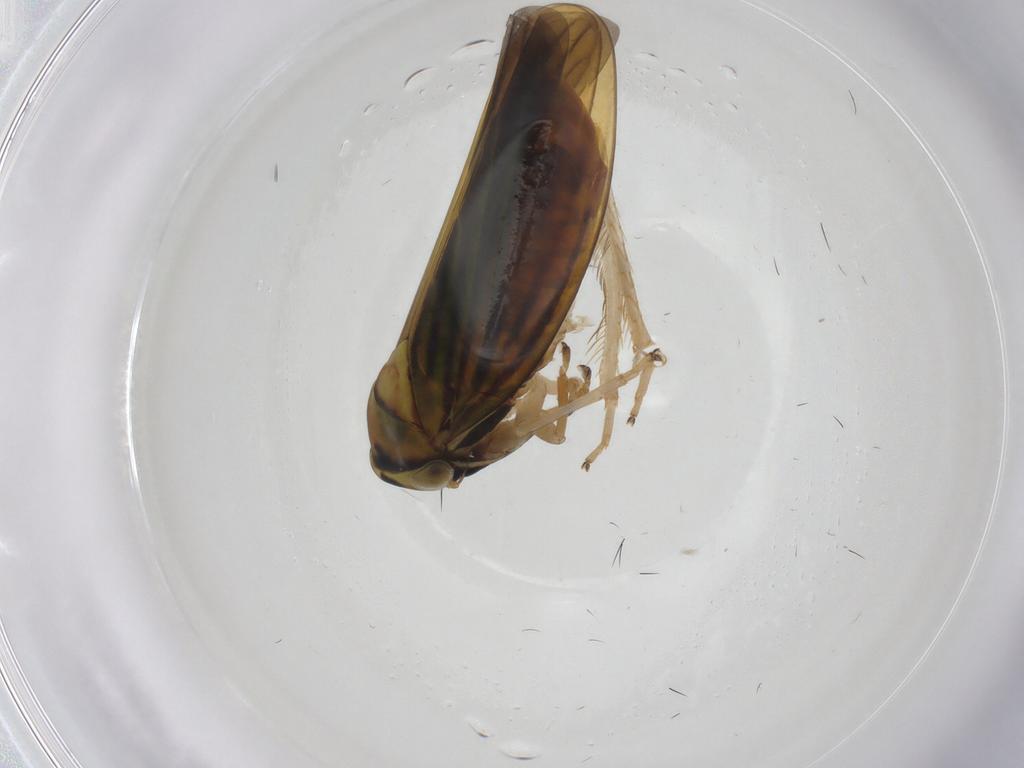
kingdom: Animalia
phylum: Arthropoda
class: Insecta
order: Hemiptera
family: Cicadellidae
